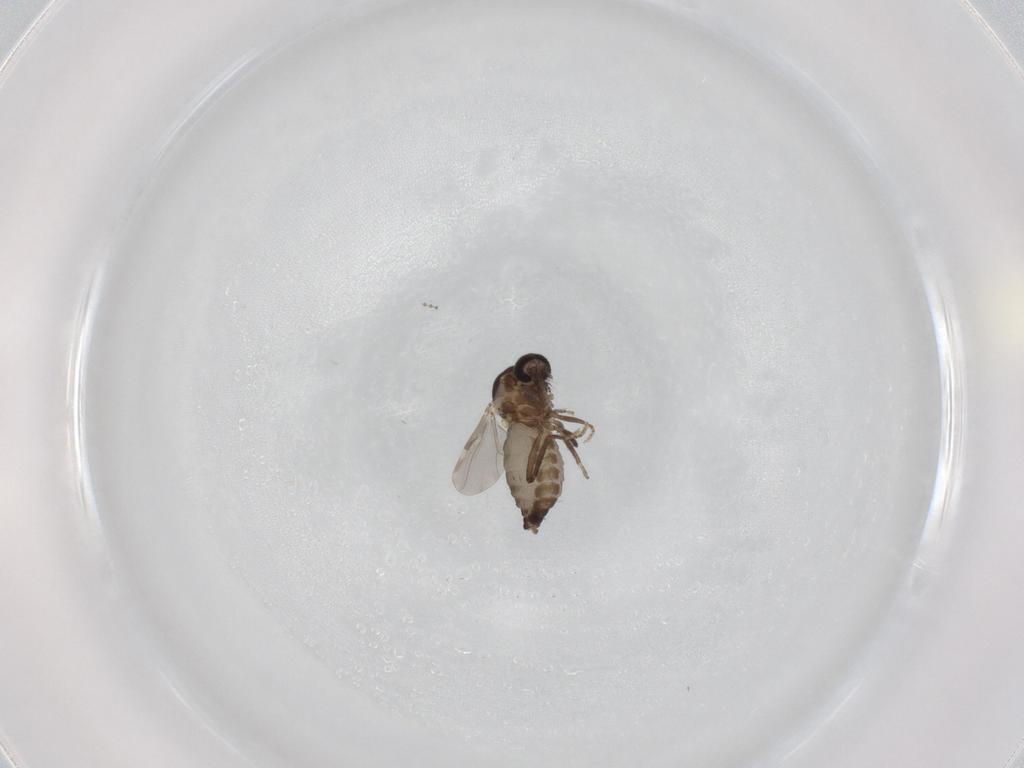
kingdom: Animalia
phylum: Arthropoda
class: Insecta
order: Diptera
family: Ceratopogonidae
